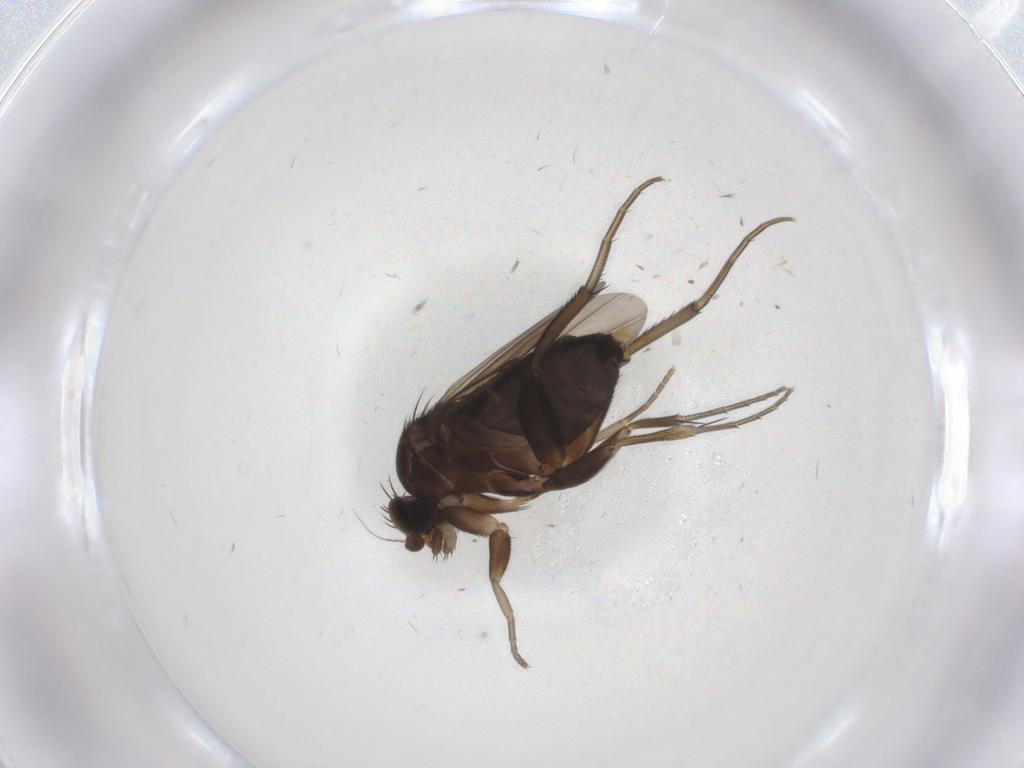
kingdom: Animalia
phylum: Arthropoda
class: Insecta
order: Diptera
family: Phoridae
